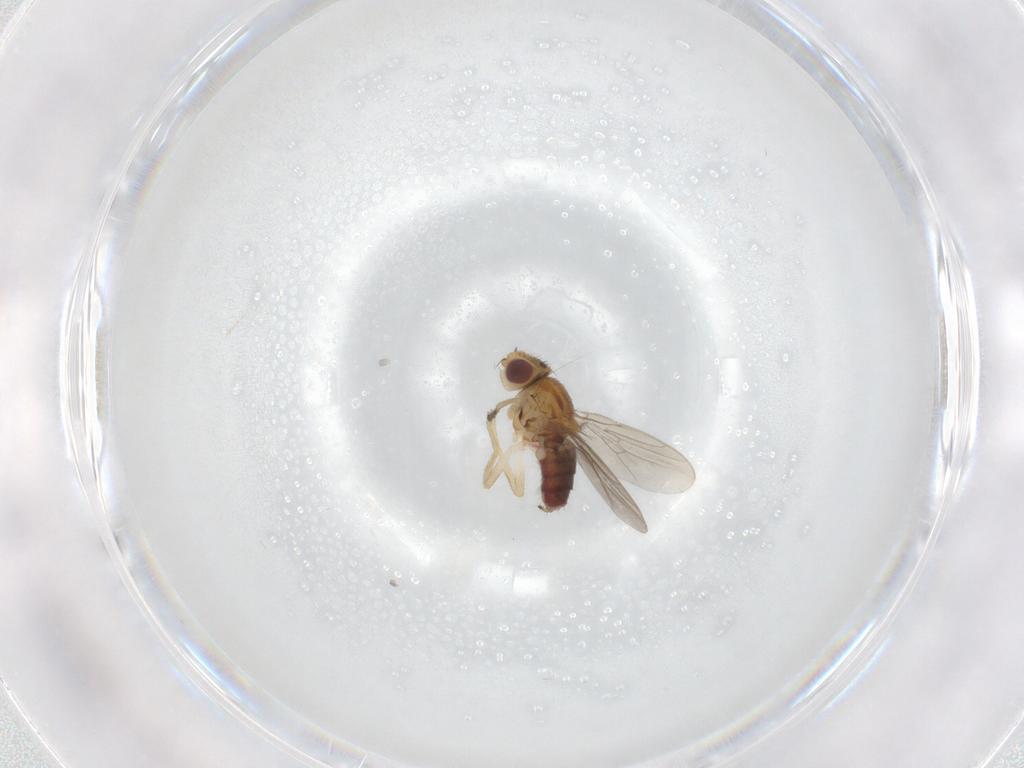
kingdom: Animalia
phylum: Arthropoda
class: Insecta
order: Diptera
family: Chloropidae
